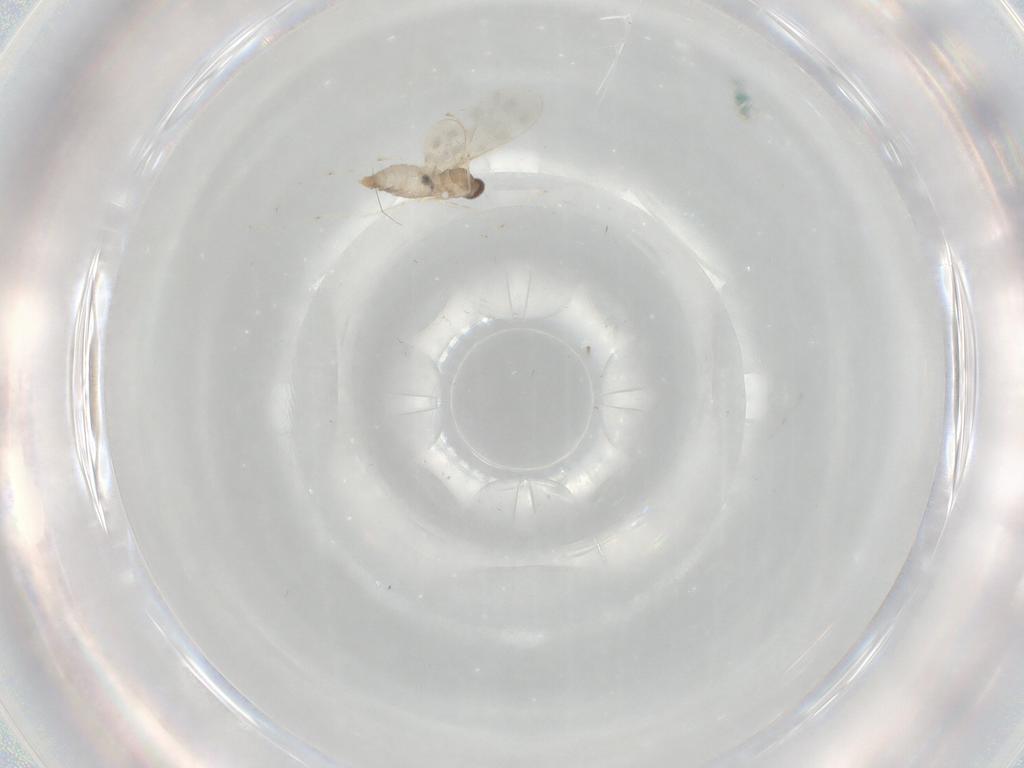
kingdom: Animalia
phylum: Arthropoda
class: Insecta
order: Diptera
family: Cecidomyiidae
